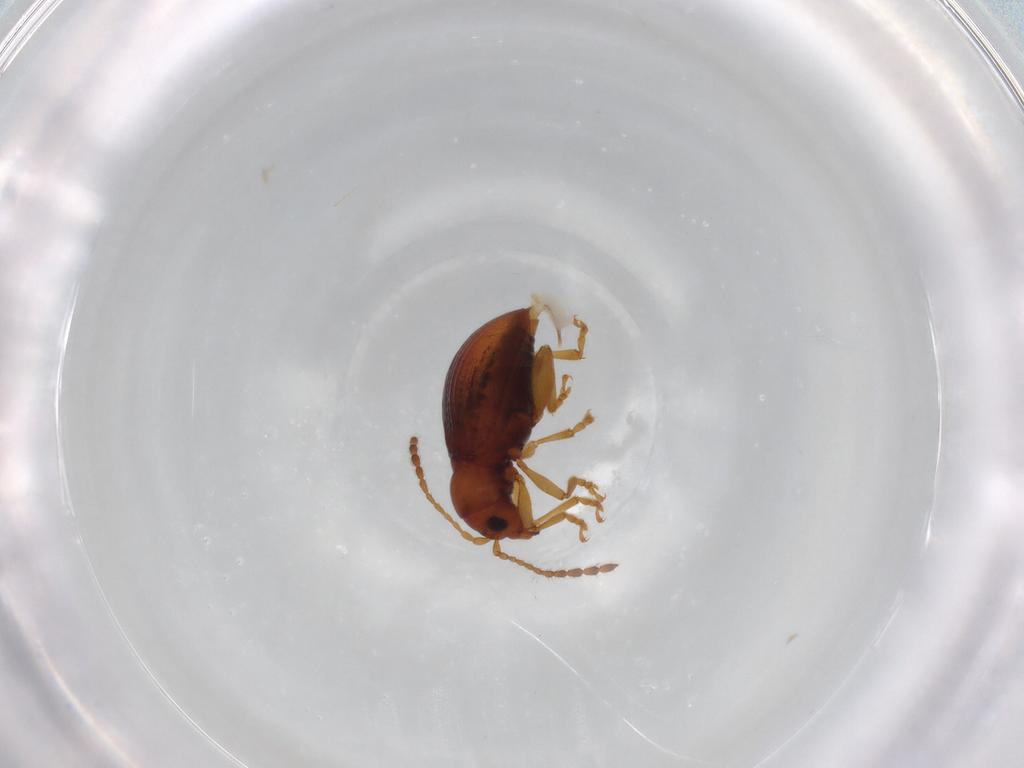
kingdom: Animalia
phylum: Arthropoda
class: Insecta
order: Coleoptera
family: Chrysomelidae
